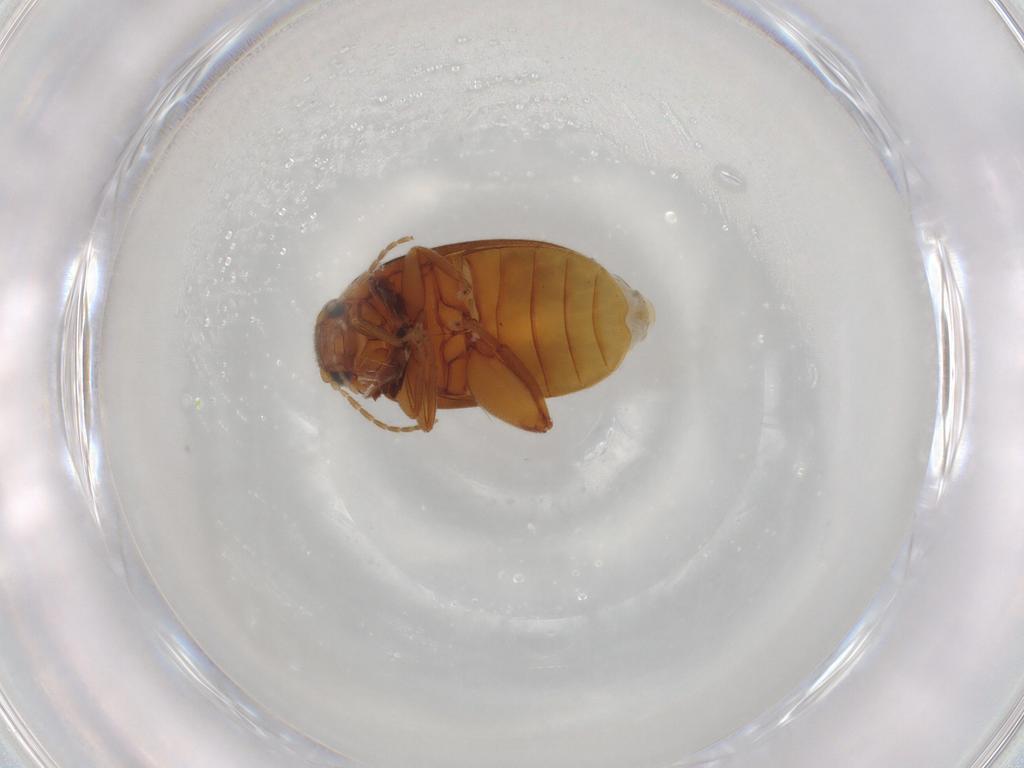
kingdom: Animalia
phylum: Arthropoda
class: Insecta
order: Coleoptera
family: Scirtidae
